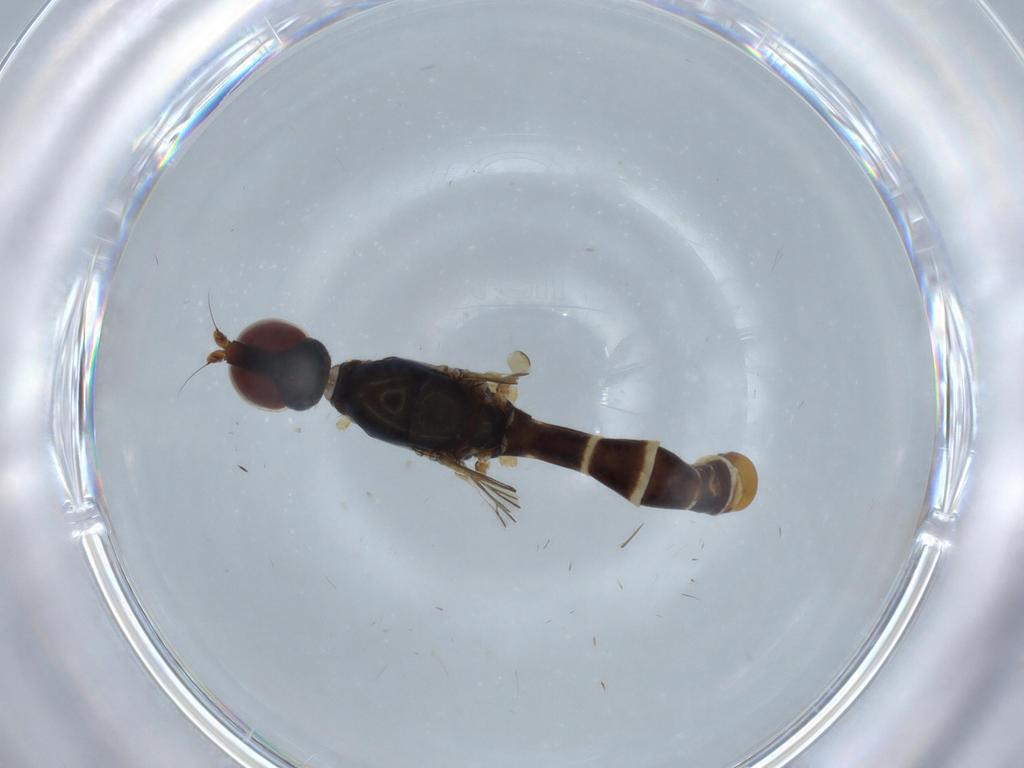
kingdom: Animalia
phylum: Arthropoda
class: Insecta
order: Diptera
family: Micropezidae
